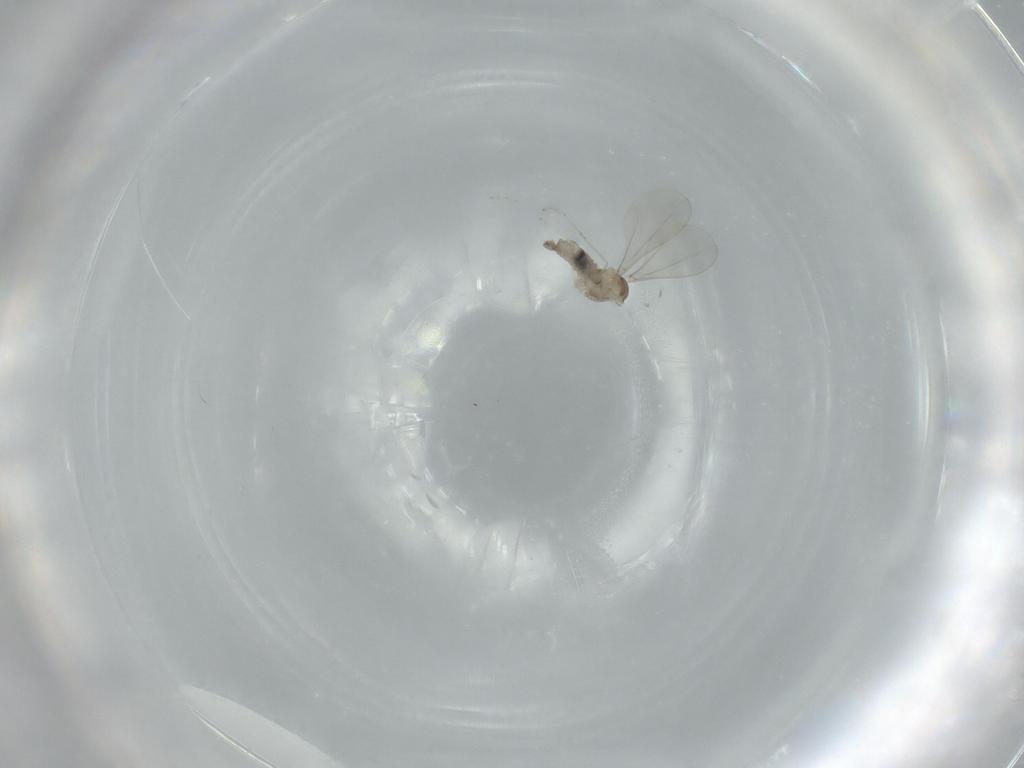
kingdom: Animalia
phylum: Arthropoda
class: Insecta
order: Diptera
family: Cecidomyiidae
